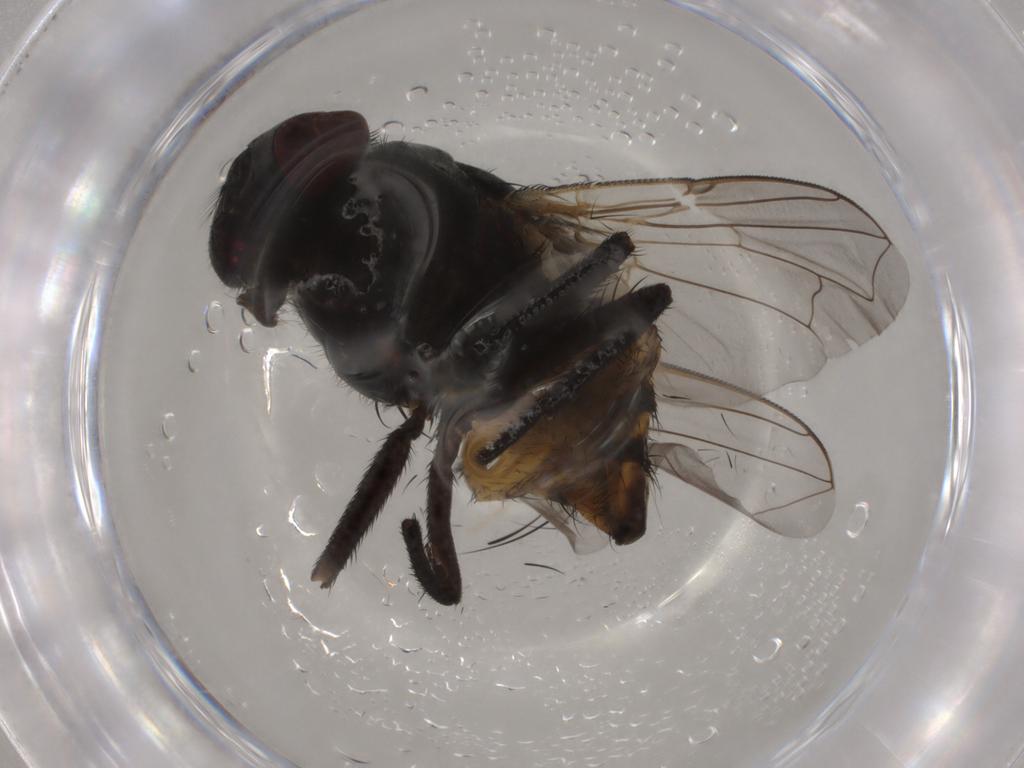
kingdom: Animalia
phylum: Arthropoda
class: Insecta
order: Diptera
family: Muscidae
